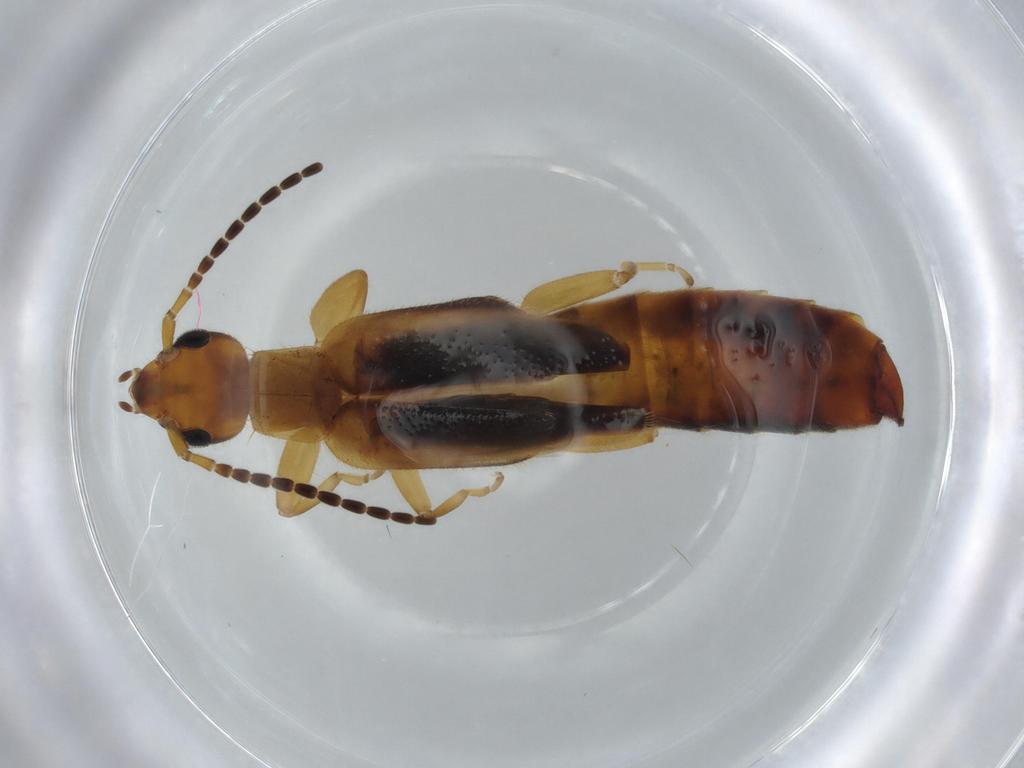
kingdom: Animalia
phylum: Arthropoda
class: Insecta
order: Dermaptera
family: Forficulidae
